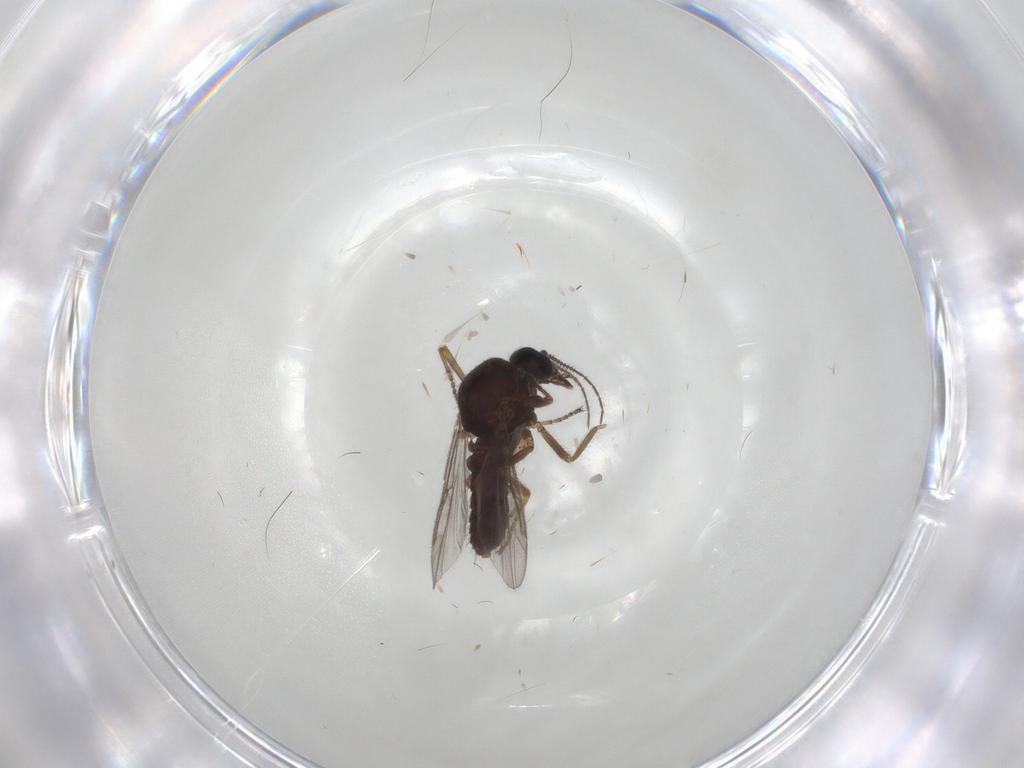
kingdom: Animalia
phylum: Arthropoda
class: Insecta
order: Diptera
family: Ceratopogonidae
